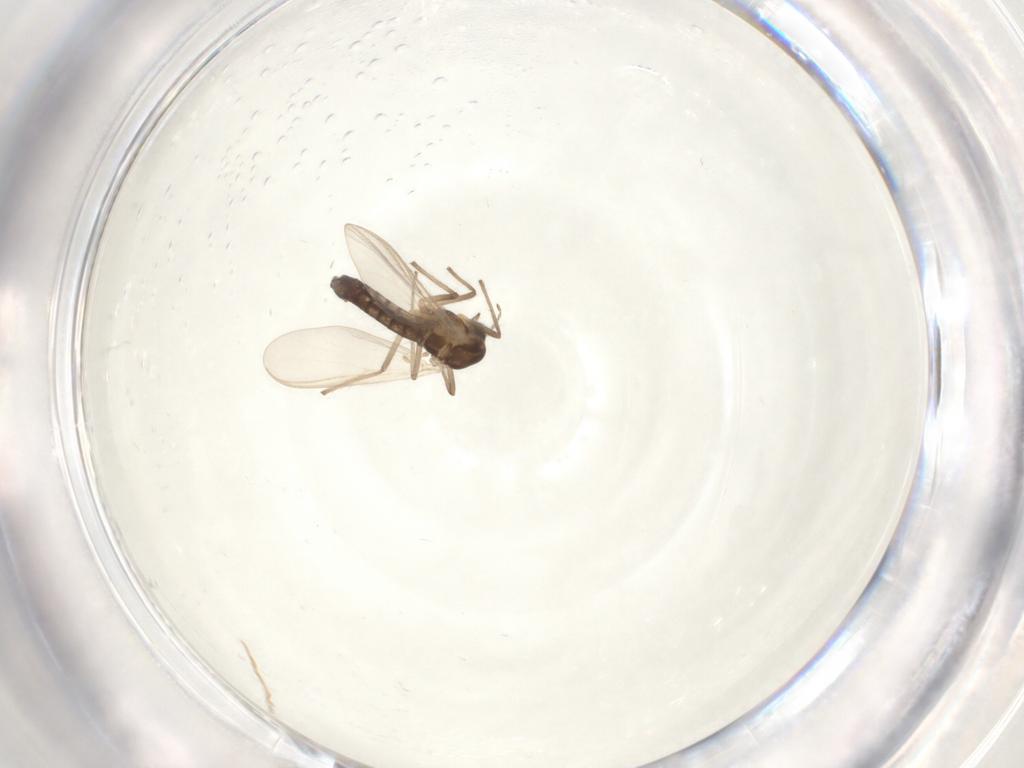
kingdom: Animalia
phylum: Arthropoda
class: Insecta
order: Diptera
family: Chironomidae
